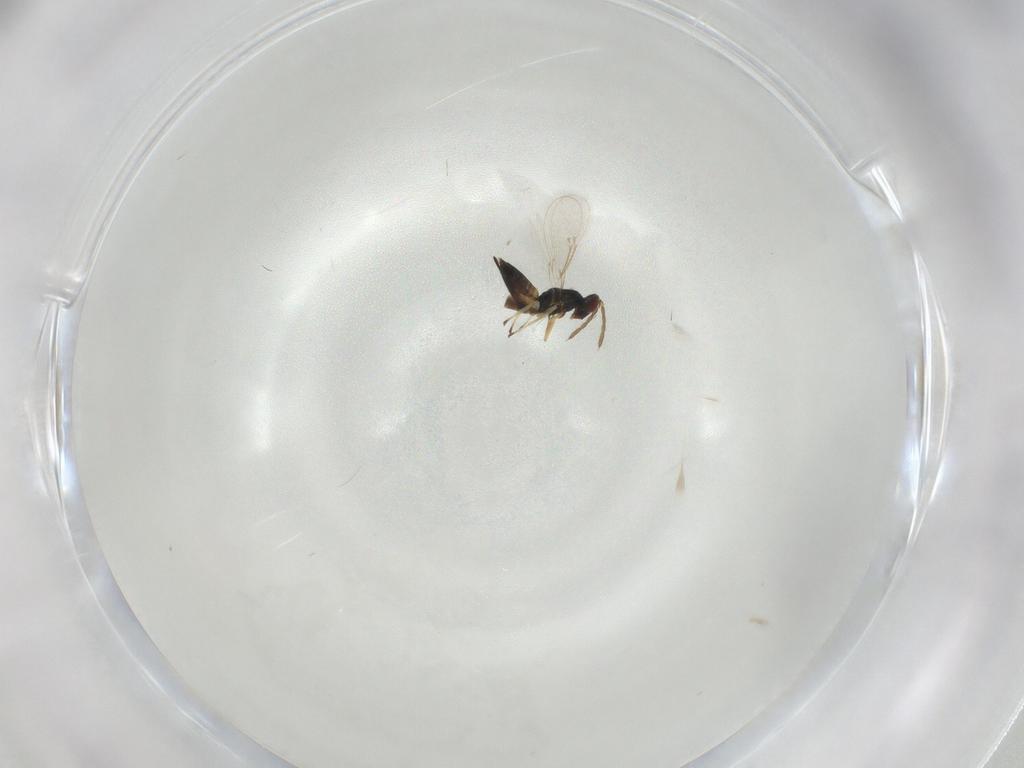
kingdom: Animalia
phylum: Arthropoda
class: Insecta
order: Hymenoptera
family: Eulophidae
